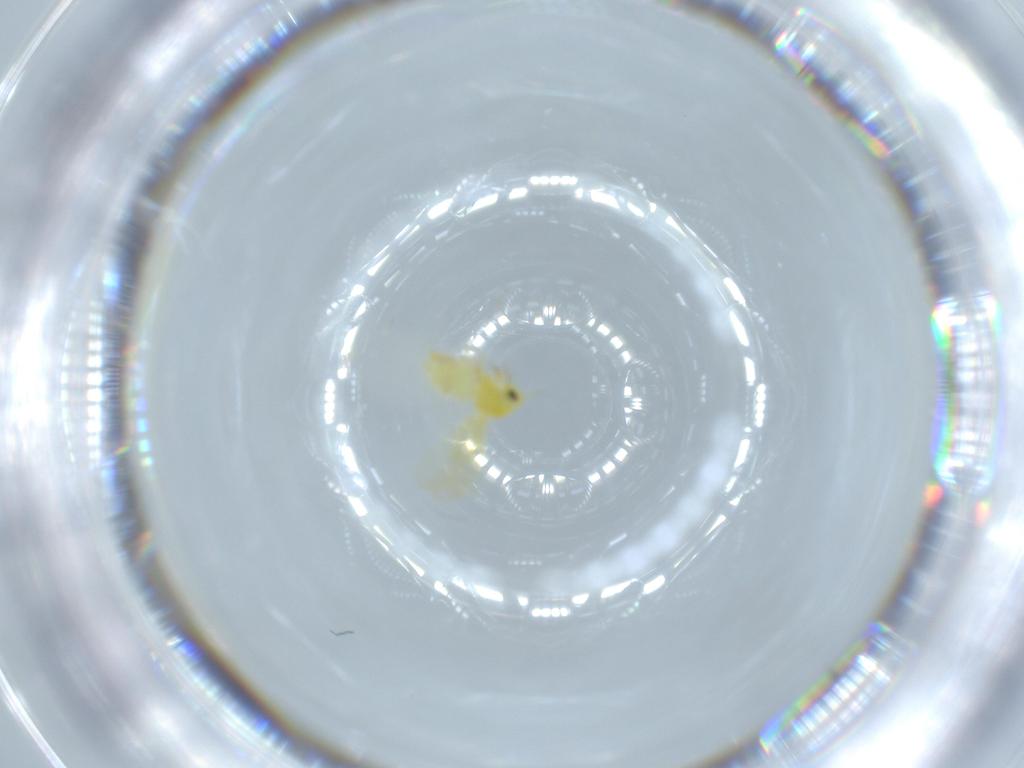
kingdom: Animalia
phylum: Arthropoda
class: Insecta
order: Hemiptera
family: Aleyrodidae
